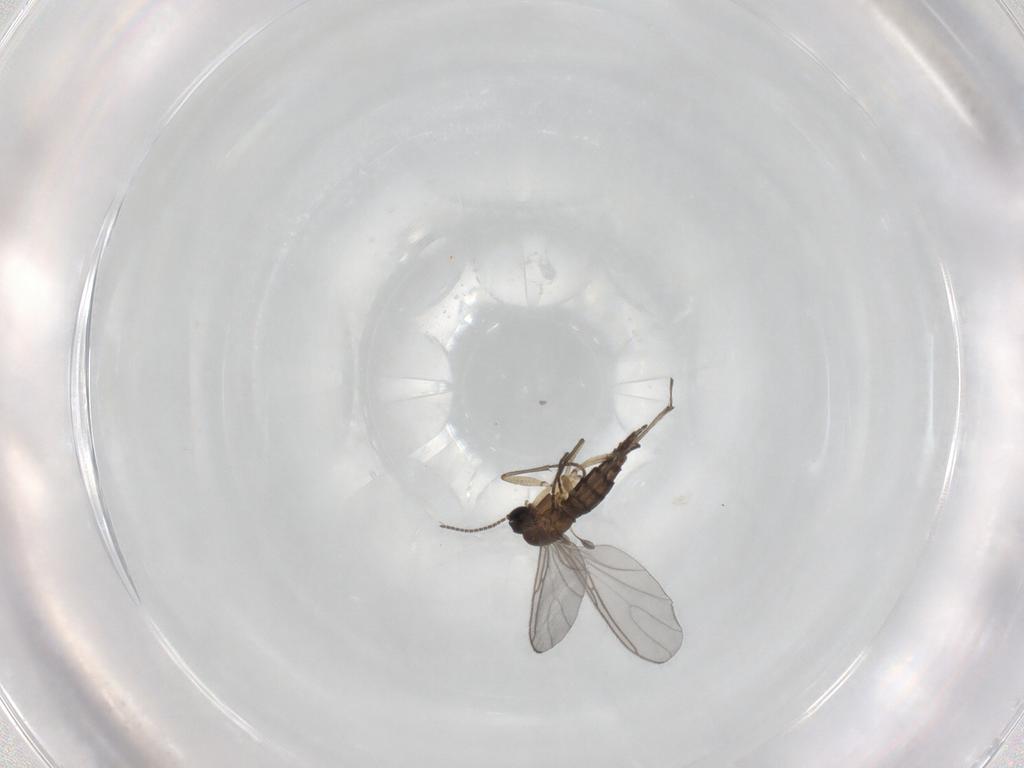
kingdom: Animalia
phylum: Arthropoda
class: Insecta
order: Diptera
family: Sciaridae
